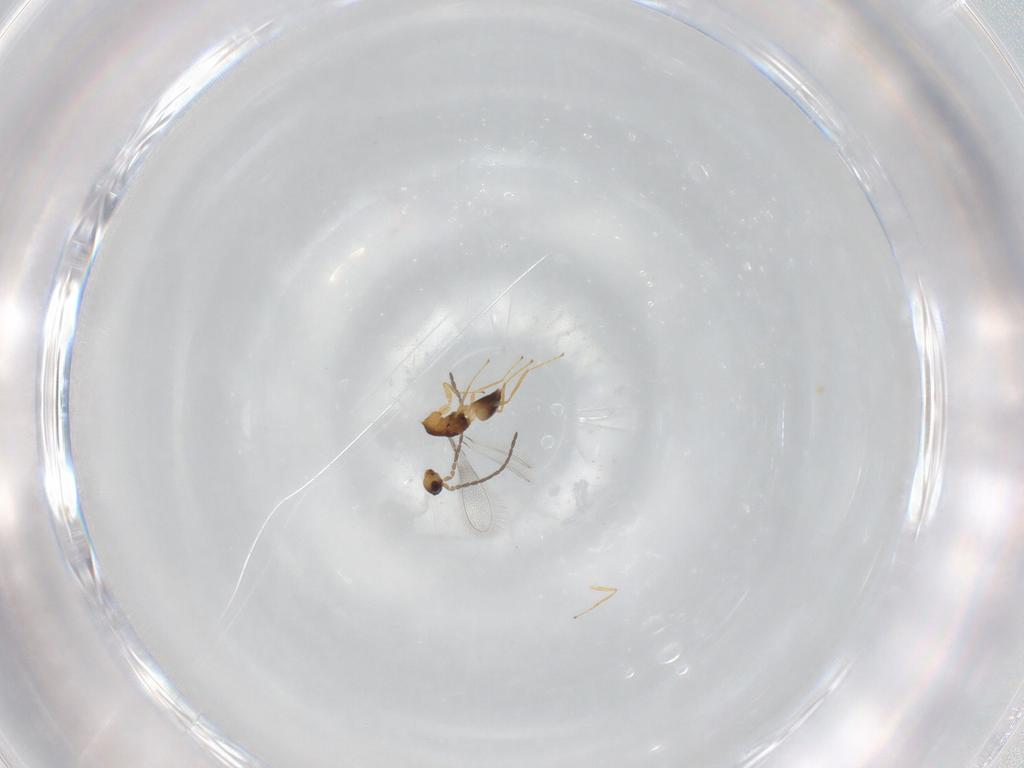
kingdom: Animalia
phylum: Arthropoda
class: Insecta
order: Hymenoptera
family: Mymaridae
